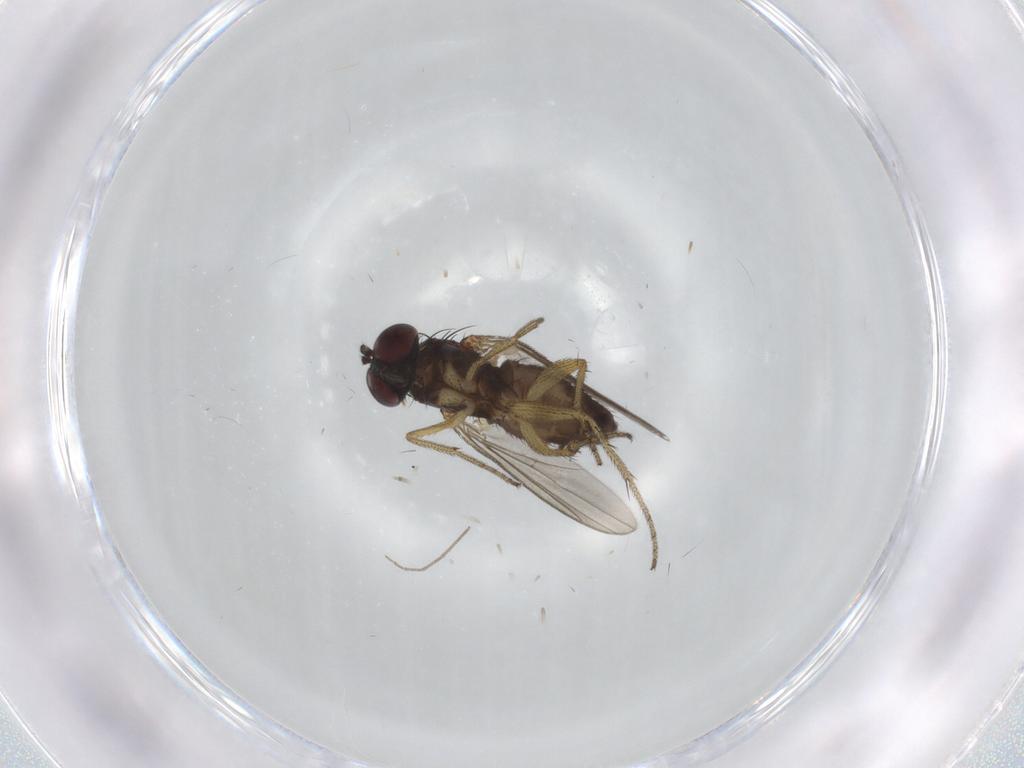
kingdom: Animalia
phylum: Arthropoda
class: Insecta
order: Diptera
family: Dolichopodidae
